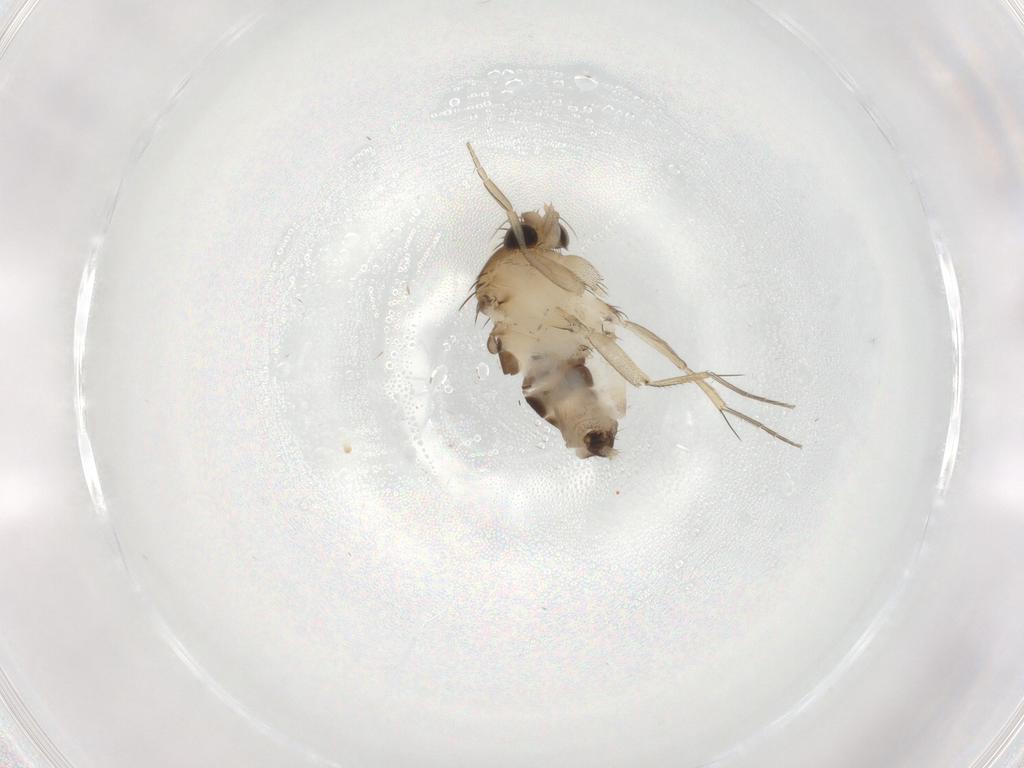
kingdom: Animalia
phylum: Arthropoda
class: Insecta
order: Diptera
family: Phoridae
